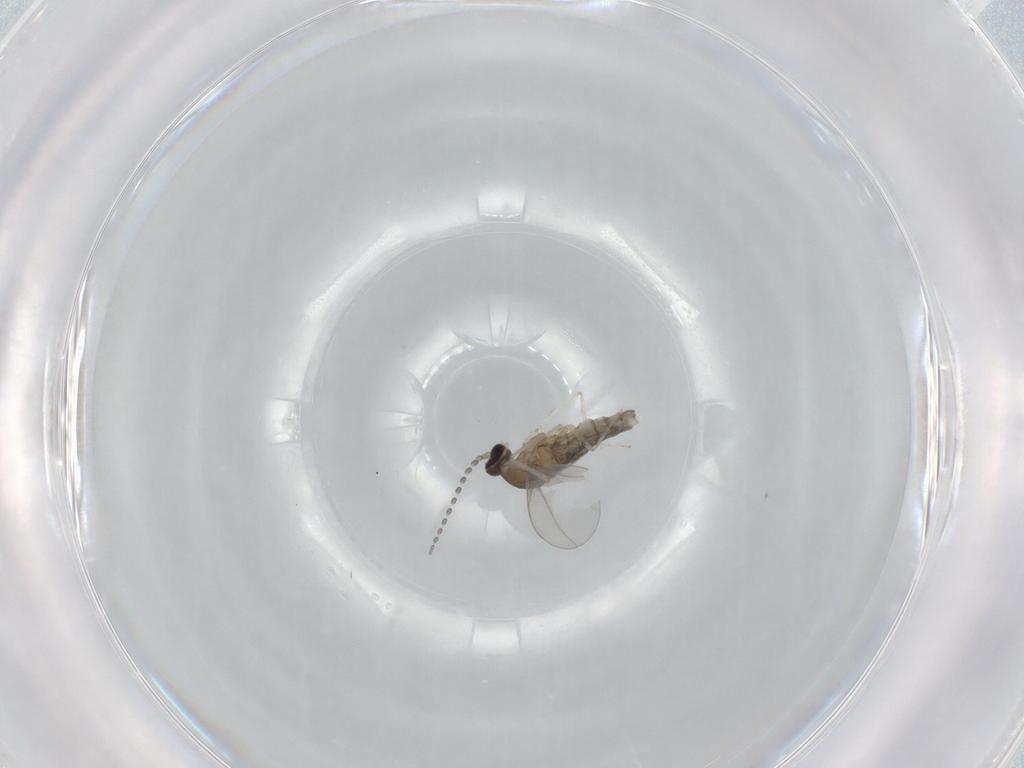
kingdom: Animalia
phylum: Arthropoda
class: Insecta
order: Diptera
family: Cecidomyiidae
